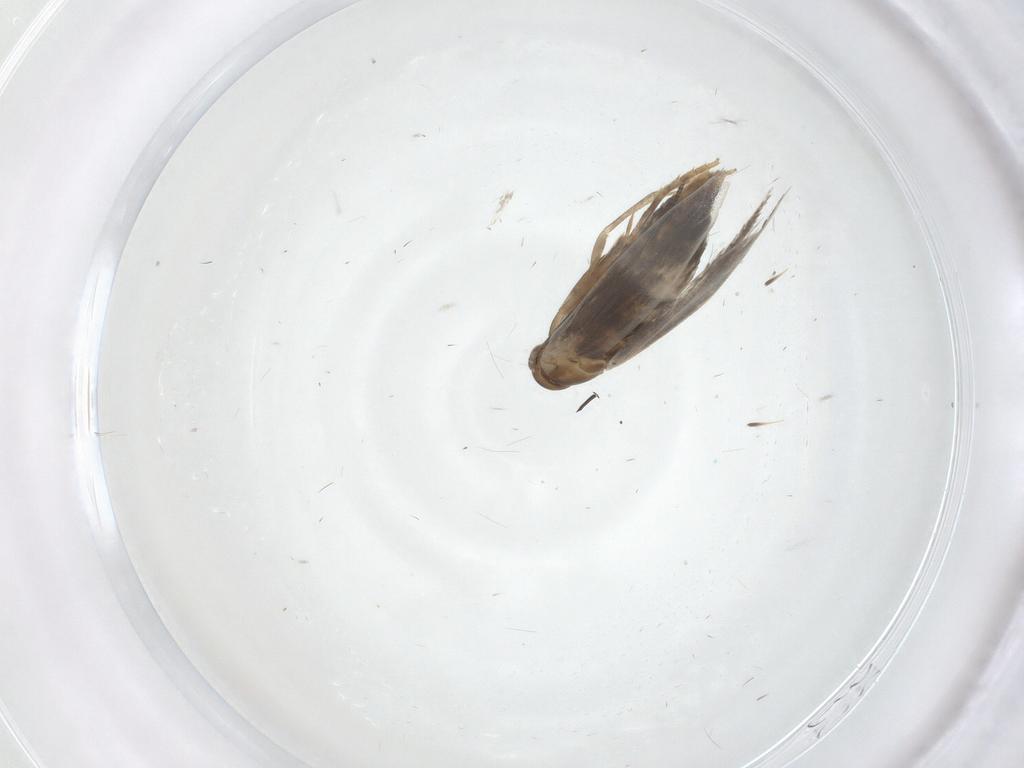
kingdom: Animalia
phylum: Arthropoda
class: Insecta
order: Lepidoptera
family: Elachistidae
